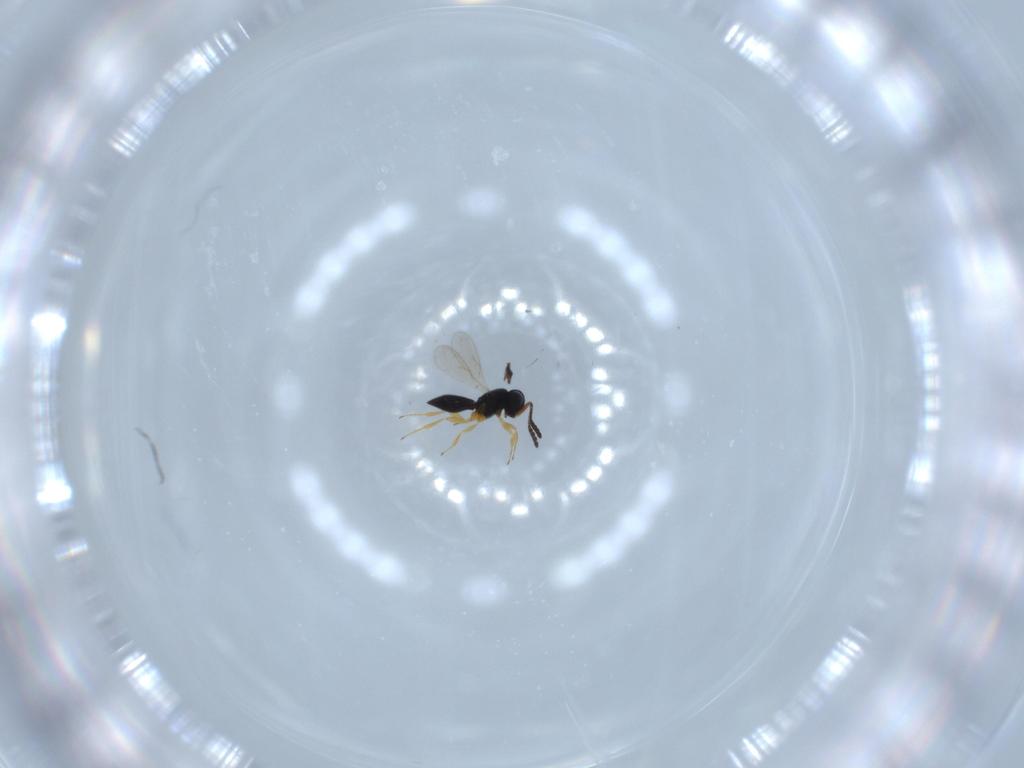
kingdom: Animalia
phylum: Arthropoda
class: Insecta
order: Hymenoptera
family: Scelionidae
